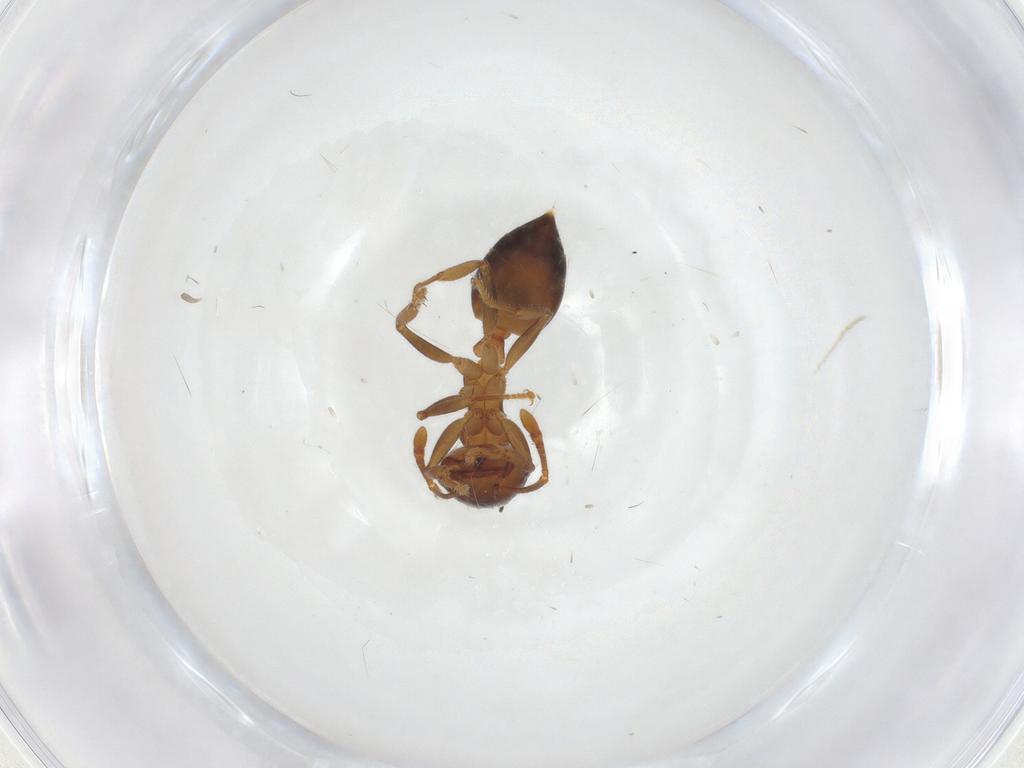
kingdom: Animalia
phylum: Arthropoda
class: Insecta
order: Hymenoptera
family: Formicidae
